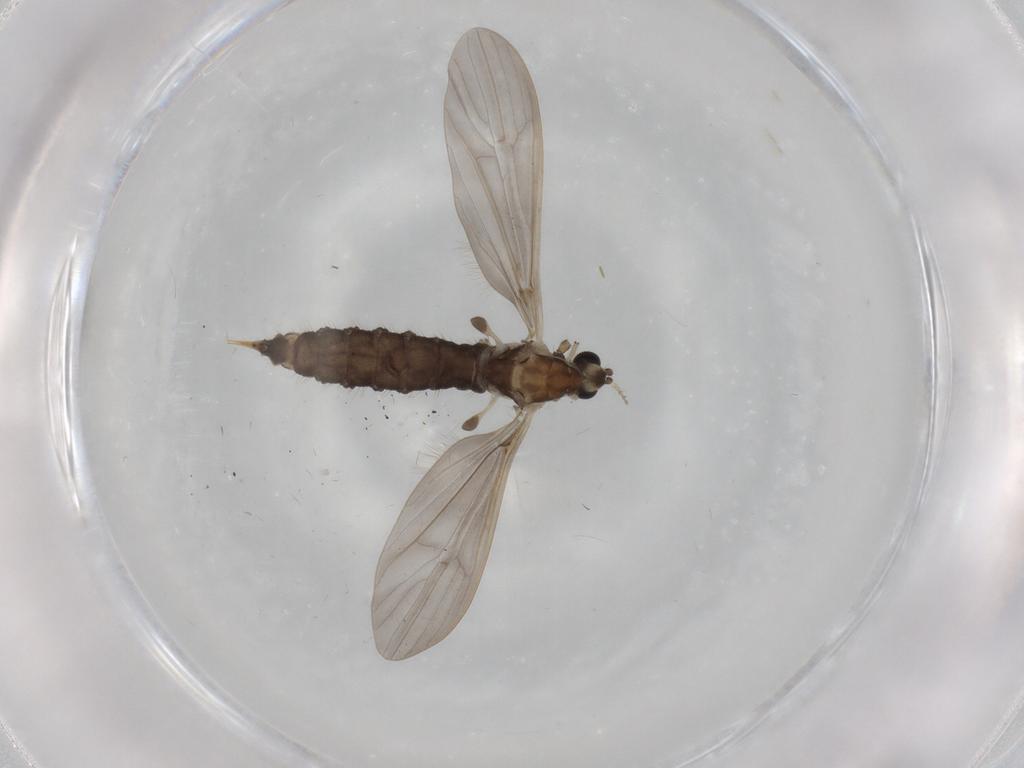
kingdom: Animalia
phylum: Arthropoda
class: Insecta
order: Diptera
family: Limoniidae
